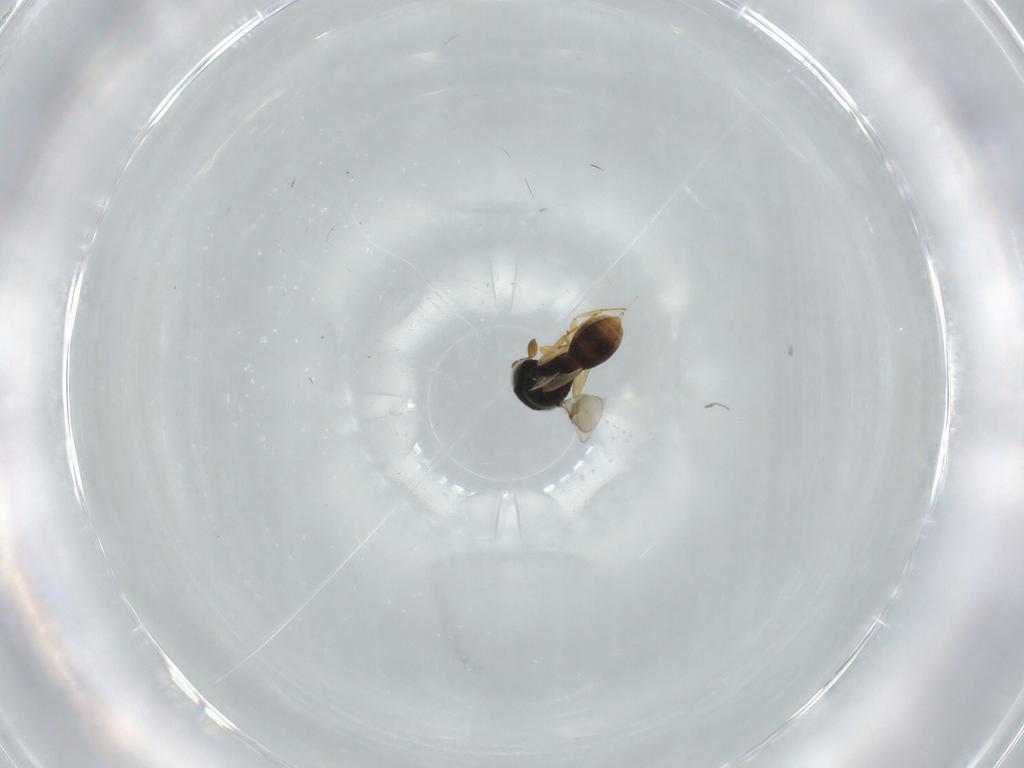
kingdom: Animalia
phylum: Arthropoda
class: Insecta
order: Hymenoptera
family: Scelionidae
